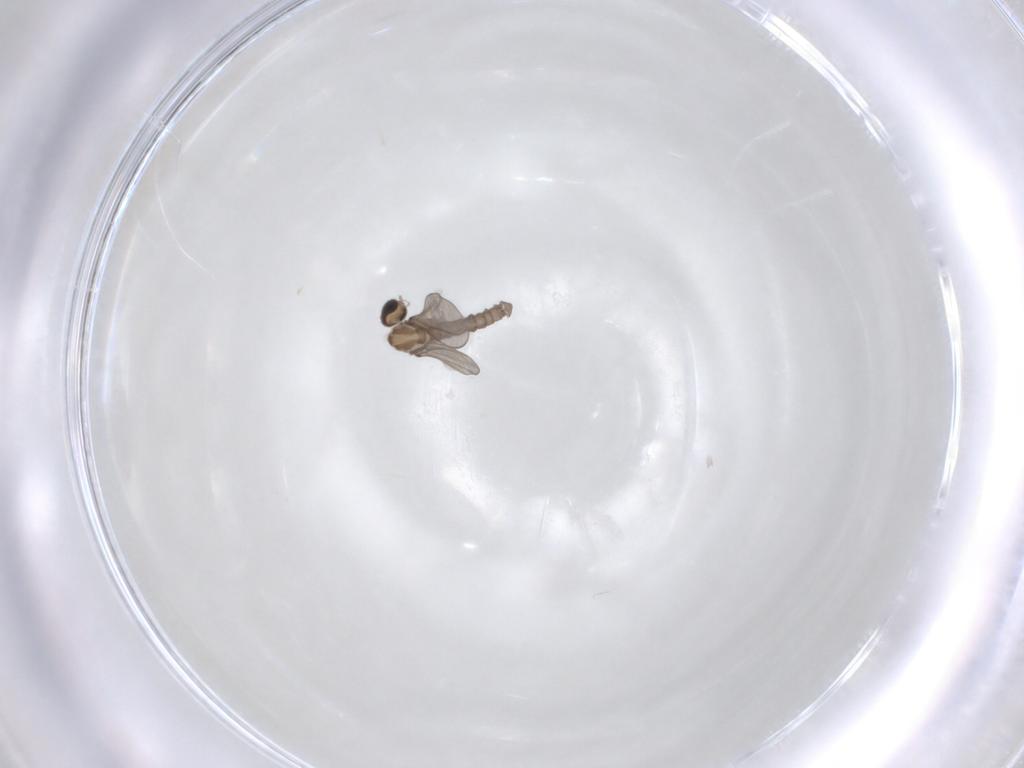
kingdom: Animalia
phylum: Arthropoda
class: Insecta
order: Diptera
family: Cecidomyiidae
